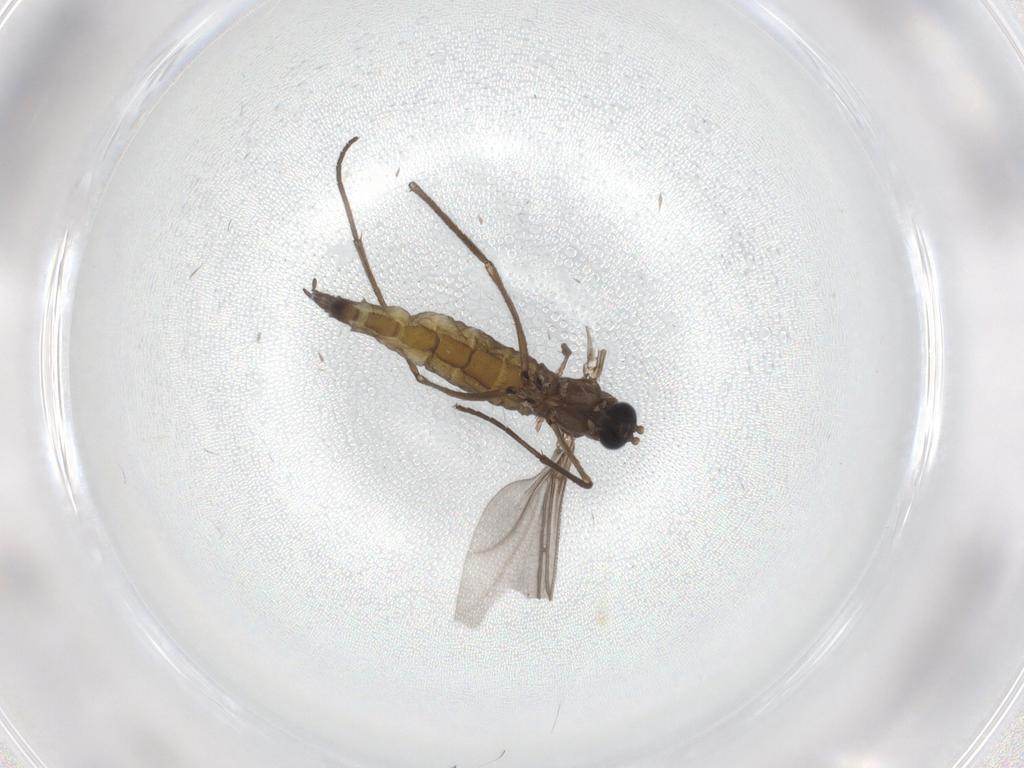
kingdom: Animalia
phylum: Arthropoda
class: Insecta
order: Diptera
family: Sciaridae
